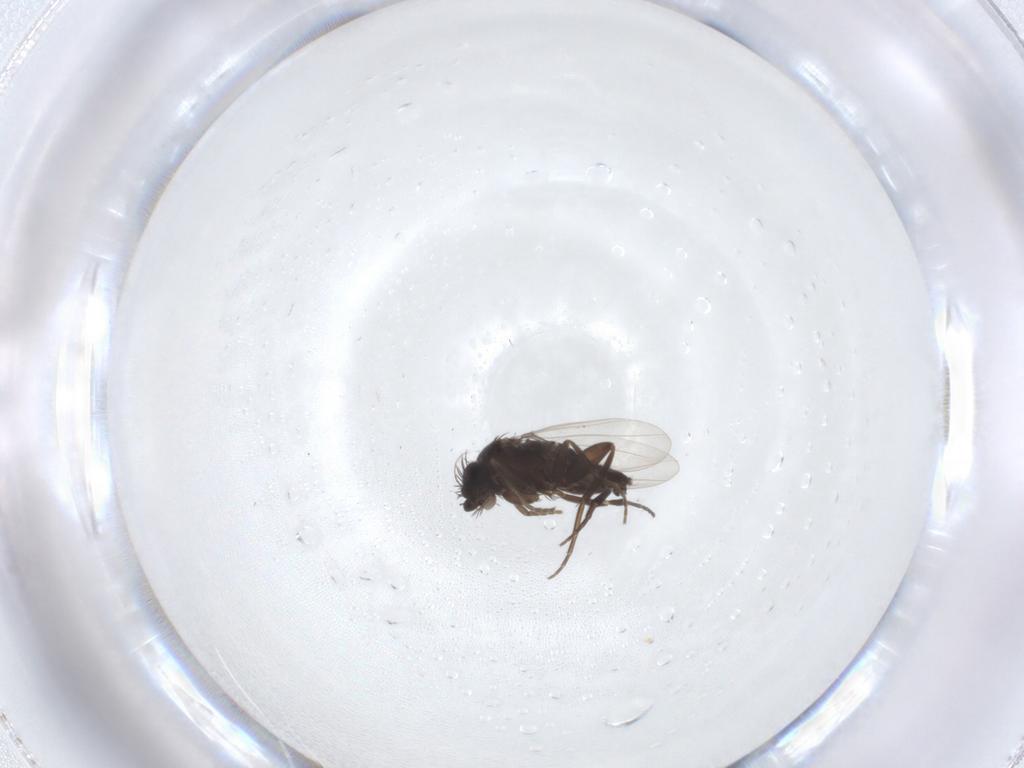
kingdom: Animalia
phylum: Arthropoda
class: Insecta
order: Diptera
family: Phoridae
